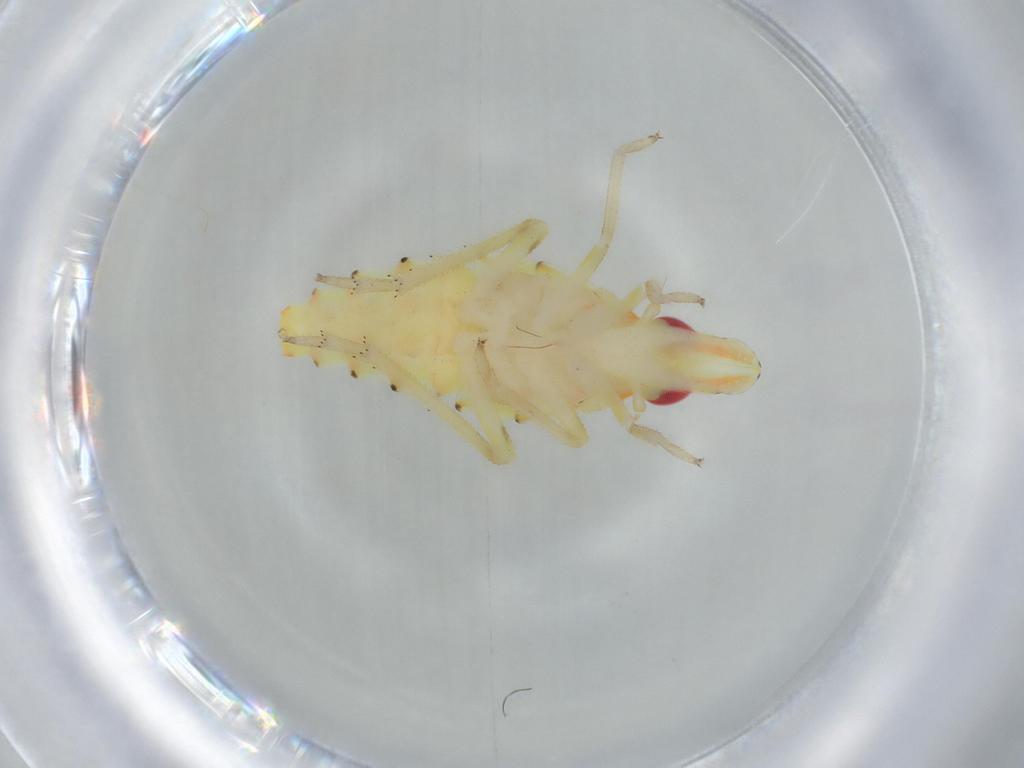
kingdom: Animalia
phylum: Arthropoda
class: Insecta
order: Hemiptera
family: Tropiduchidae
